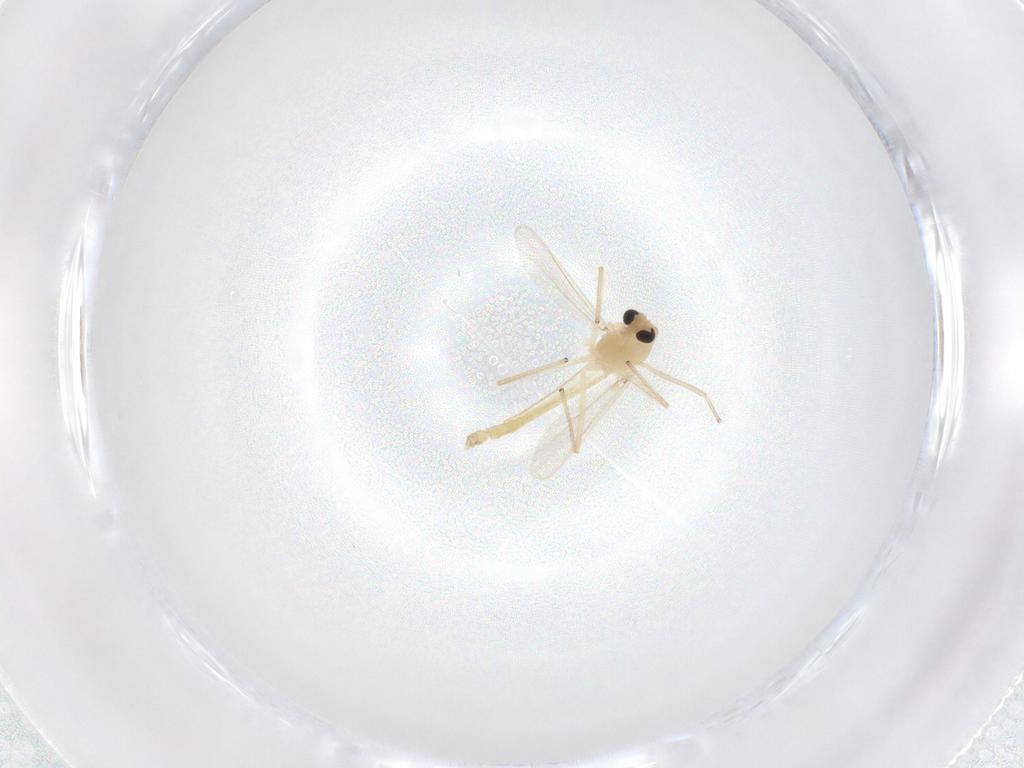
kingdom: Animalia
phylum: Arthropoda
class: Insecta
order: Diptera
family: Chironomidae
